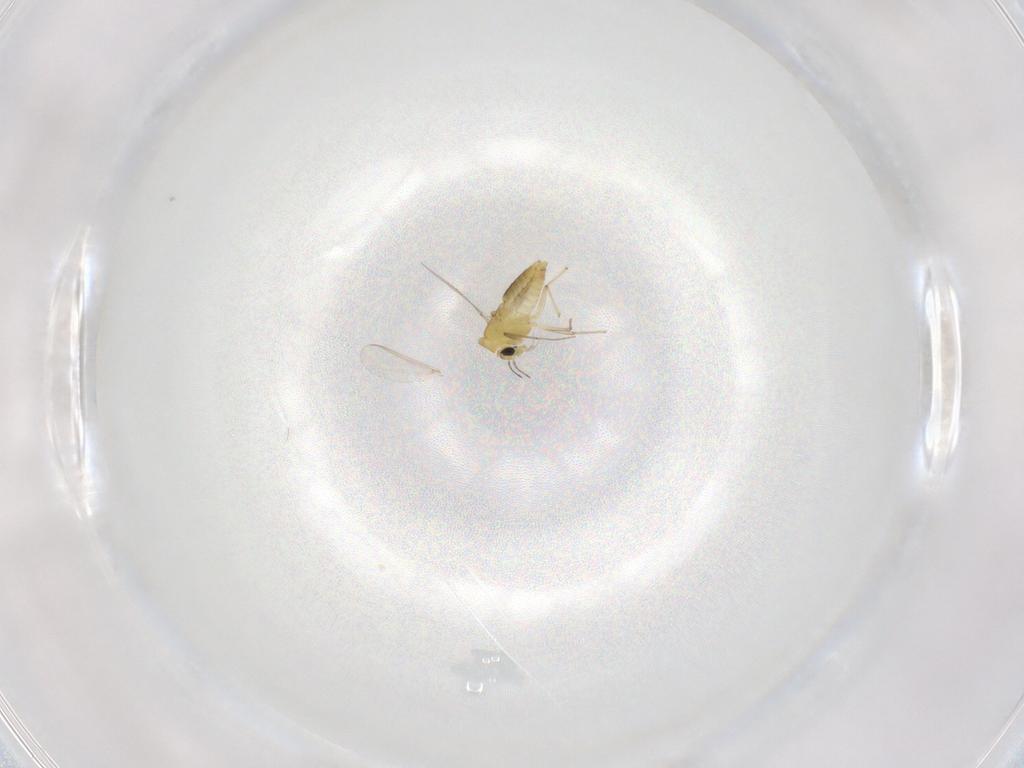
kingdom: Animalia
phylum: Arthropoda
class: Insecta
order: Diptera
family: Chironomidae
